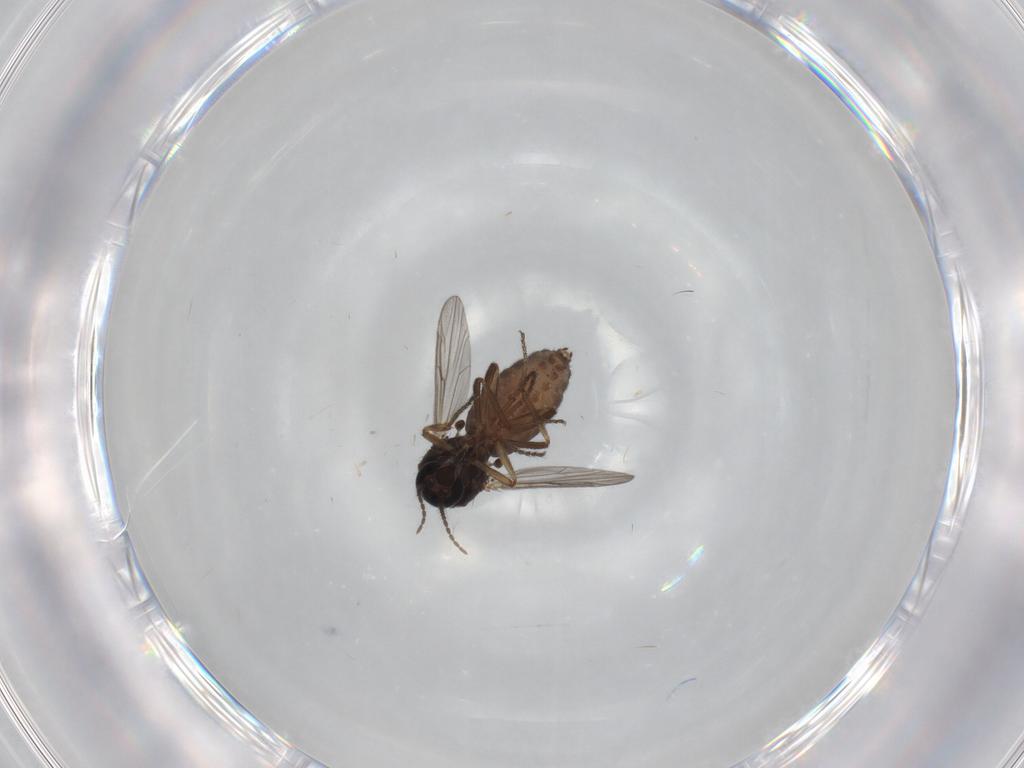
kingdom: Animalia
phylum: Arthropoda
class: Insecta
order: Diptera
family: Ceratopogonidae
